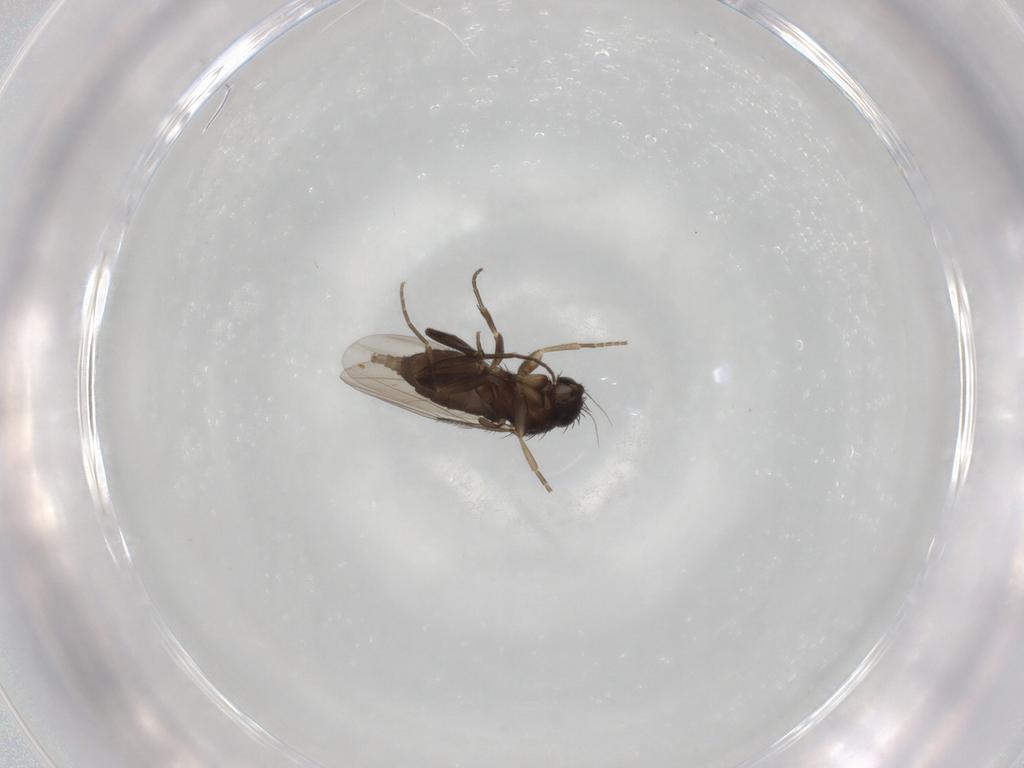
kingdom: Animalia
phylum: Arthropoda
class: Insecta
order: Diptera
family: Phoridae
